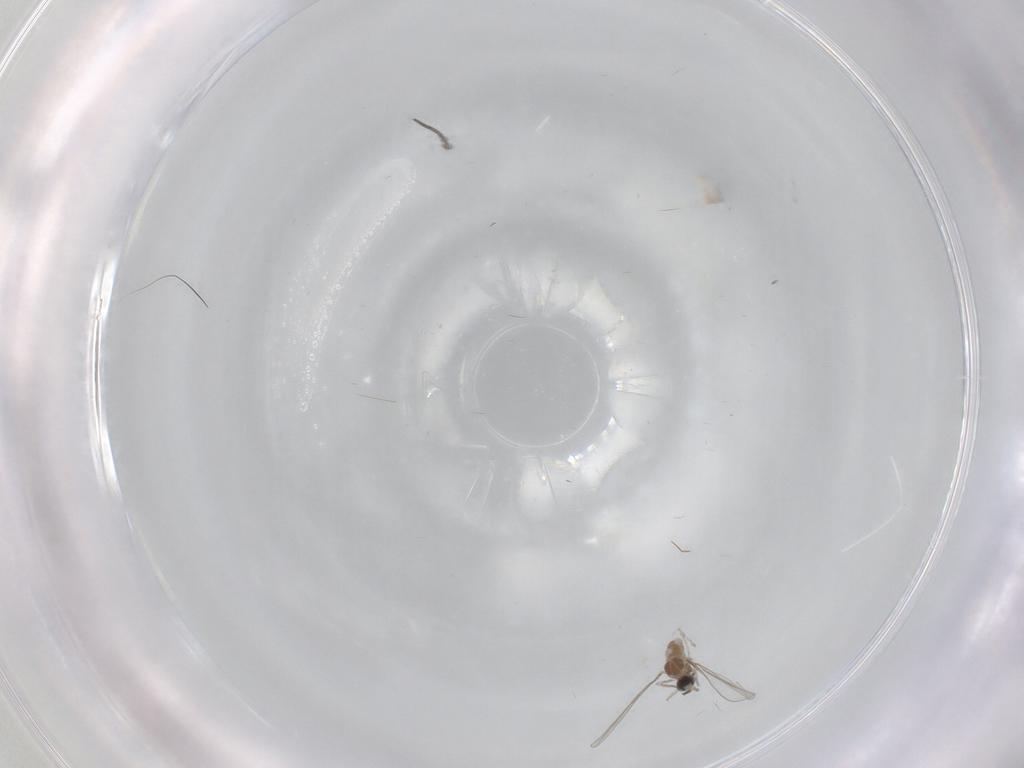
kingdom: Animalia
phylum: Arthropoda
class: Insecta
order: Diptera
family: Cecidomyiidae
